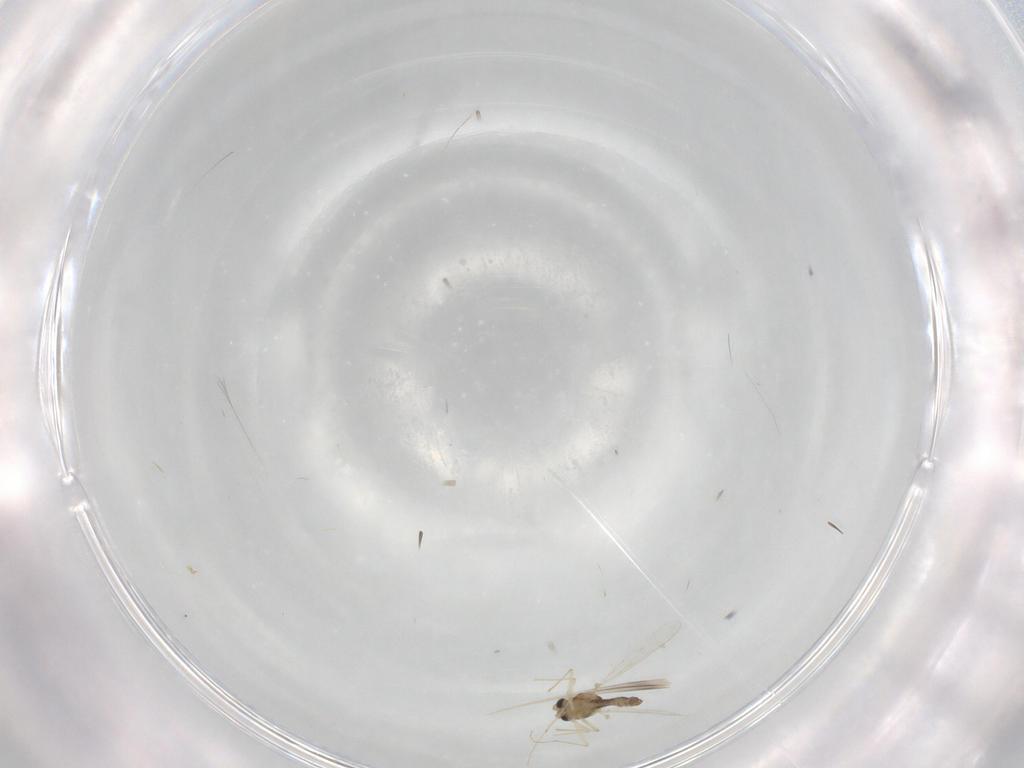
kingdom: Animalia
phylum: Arthropoda
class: Insecta
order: Diptera
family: Chironomidae
